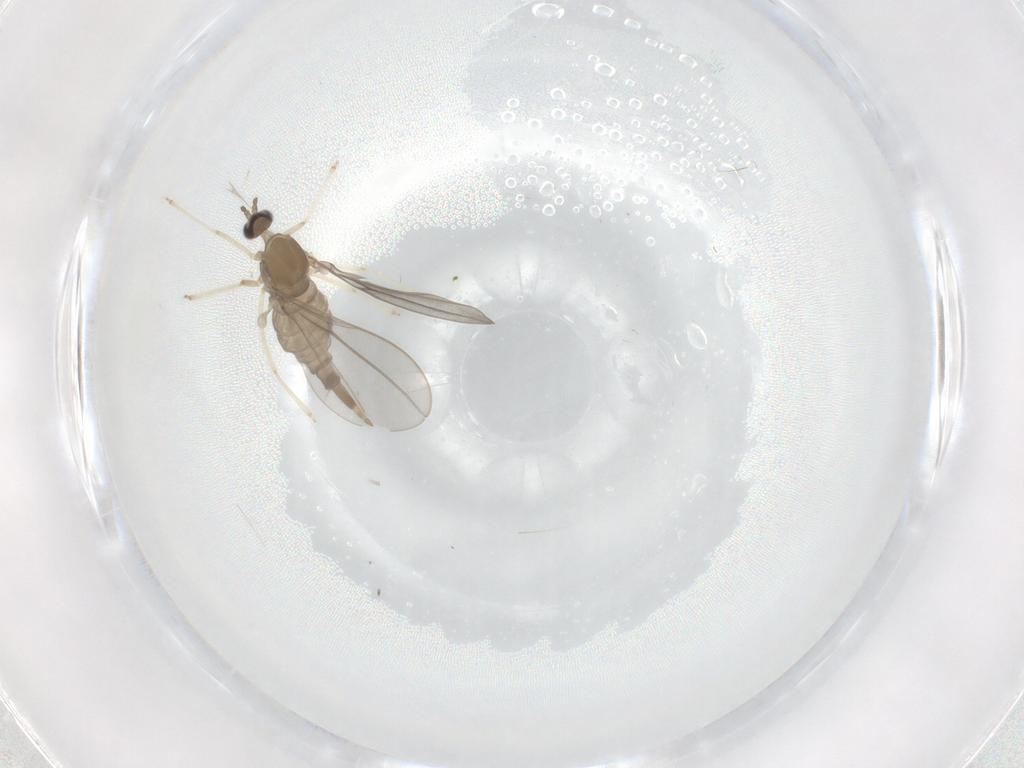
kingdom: Animalia
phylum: Arthropoda
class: Insecta
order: Diptera
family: Cecidomyiidae
